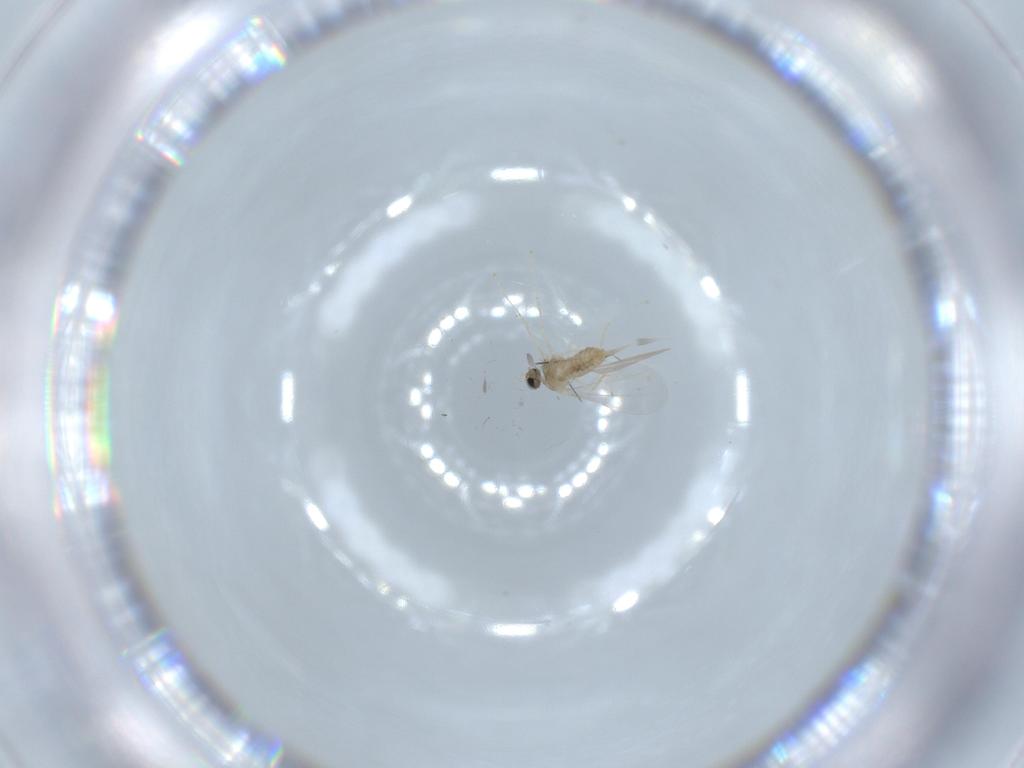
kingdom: Animalia
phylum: Arthropoda
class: Insecta
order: Diptera
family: Cecidomyiidae
